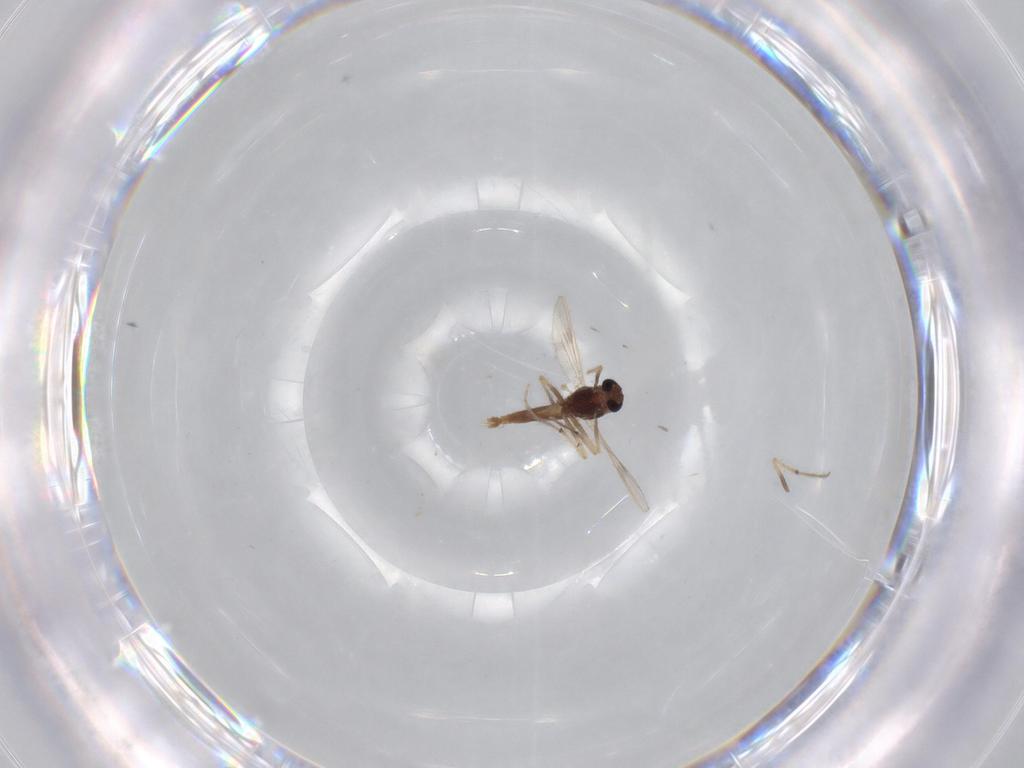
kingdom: Animalia
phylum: Arthropoda
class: Insecta
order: Diptera
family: Chironomidae
